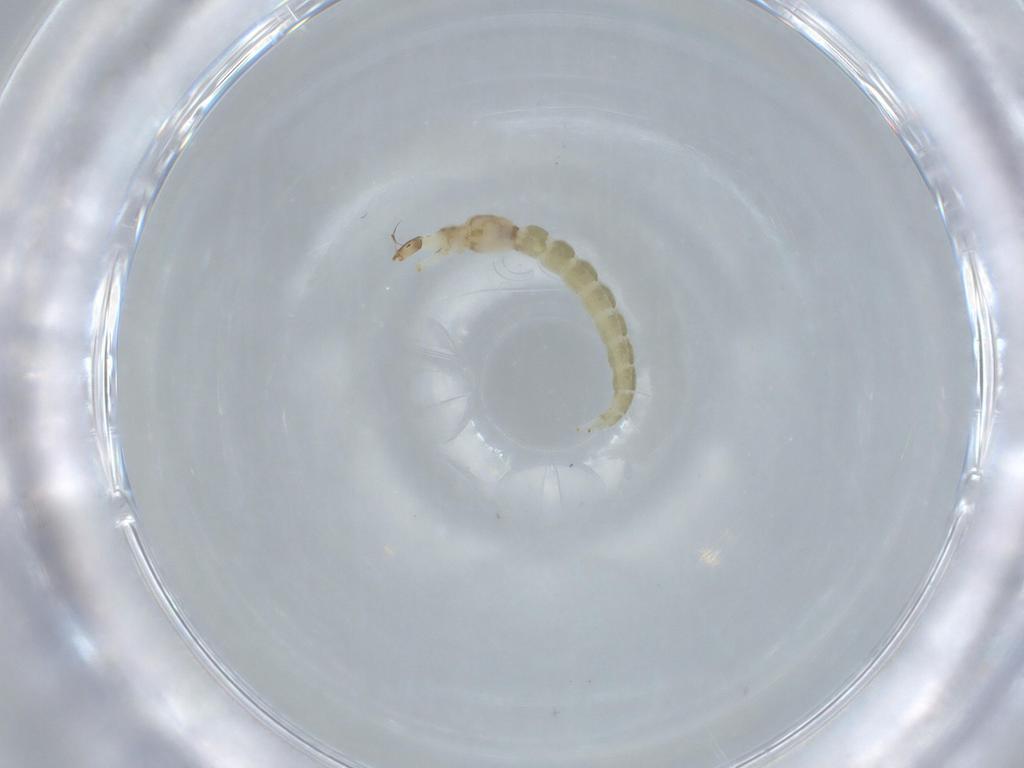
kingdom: Animalia
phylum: Arthropoda
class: Insecta
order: Diptera
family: Chironomidae
